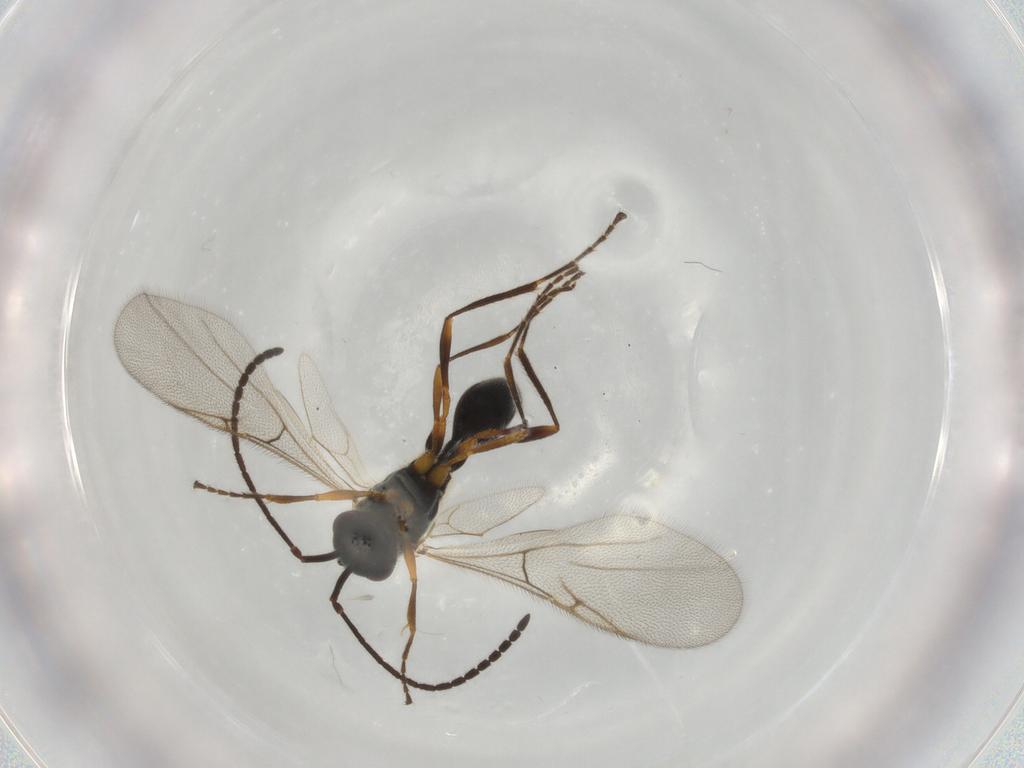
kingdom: Animalia
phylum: Arthropoda
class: Insecta
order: Hymenoptera
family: Diapriidae
